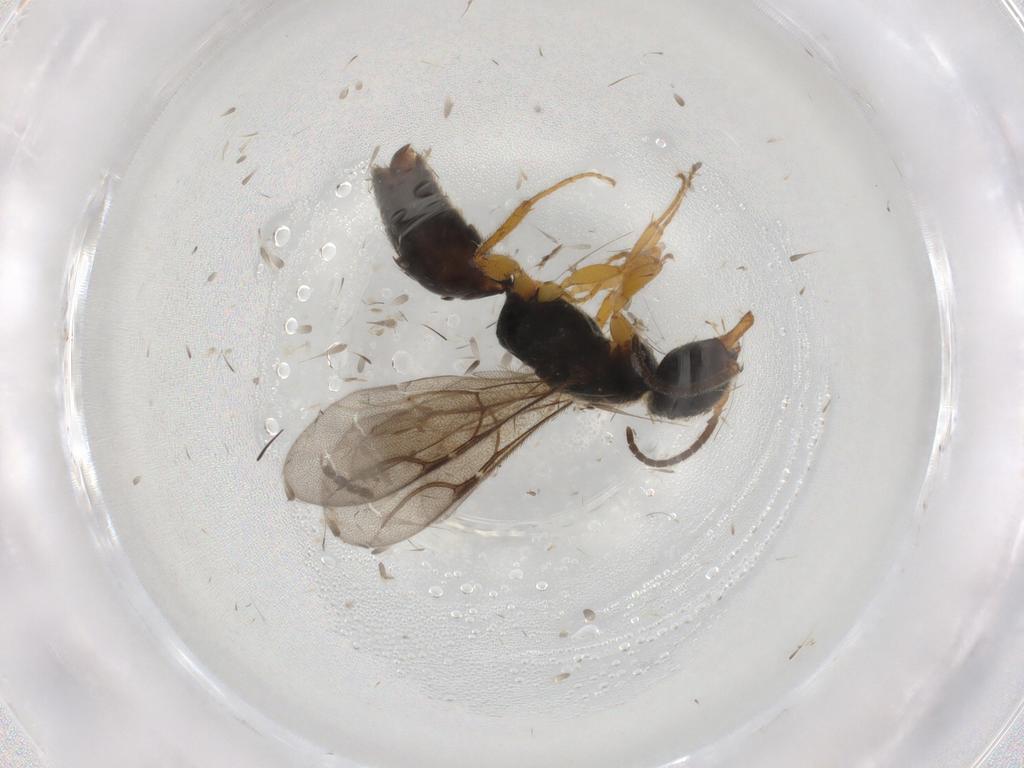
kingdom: Animalia
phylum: Arthropoda
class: Insecta
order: Hymenoptera
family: Bethylidae
